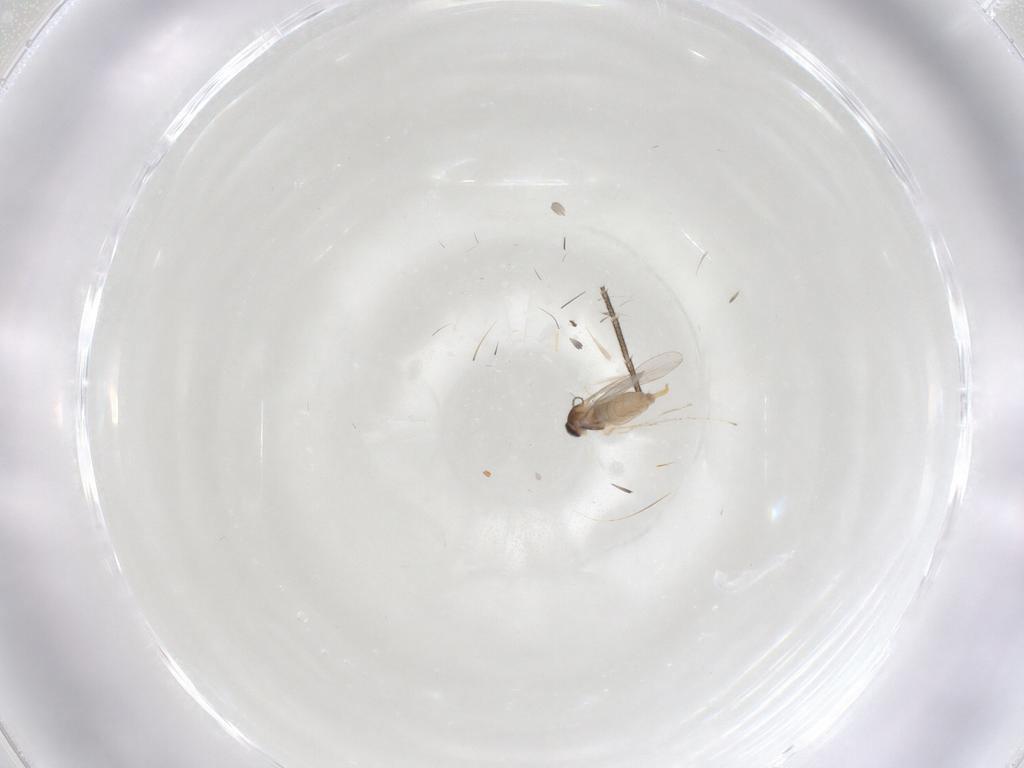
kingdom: Animalia
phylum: Arthropoda
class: Insecta
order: Diptera
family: Keroplatidae
